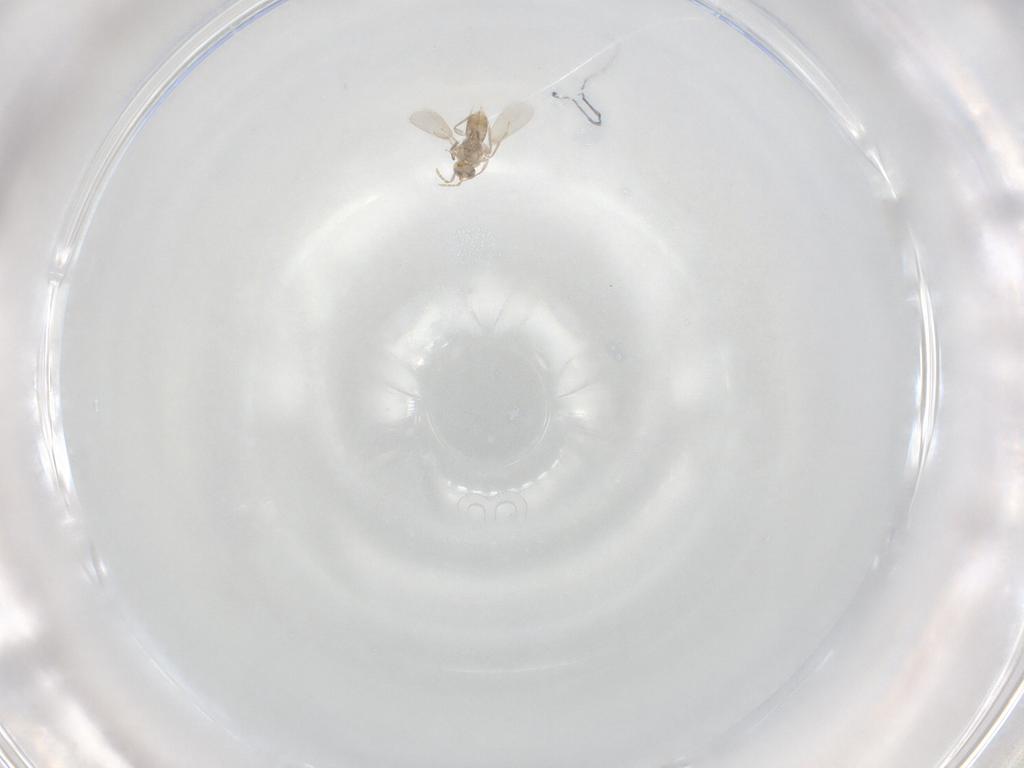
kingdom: Animalia
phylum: Arthropoda
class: Insecta
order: Hymenoptera
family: Aphelinidae
